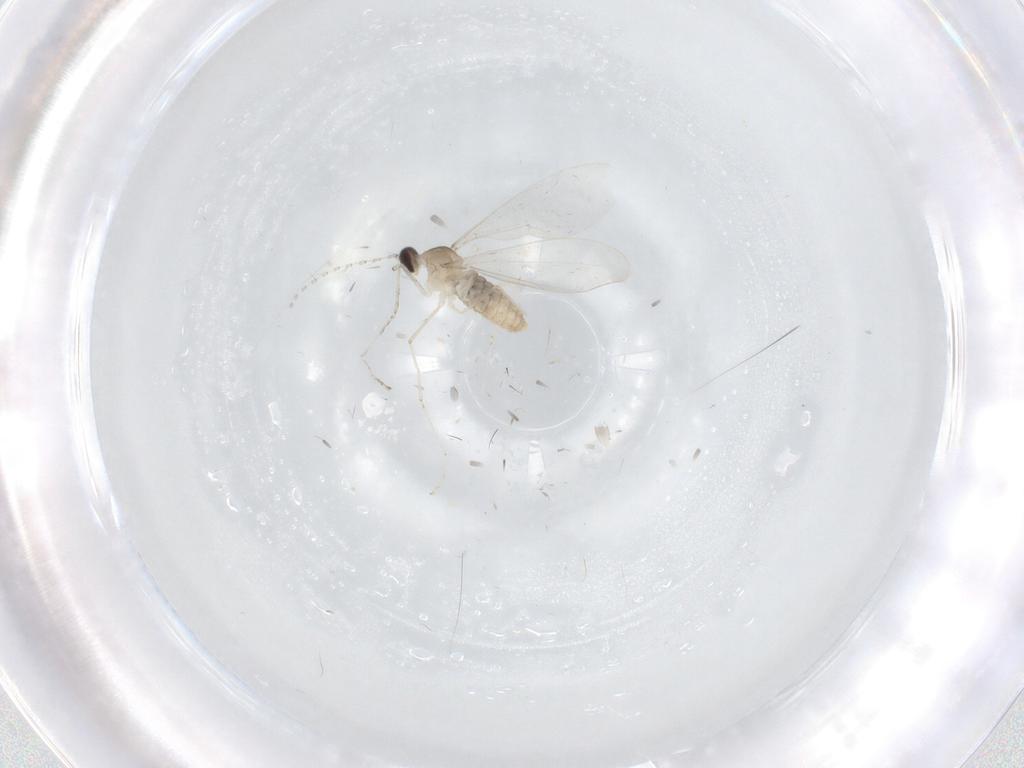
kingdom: Animalia
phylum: Arthropoda
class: Insecta
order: Diptera
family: Cecidomyiidae
